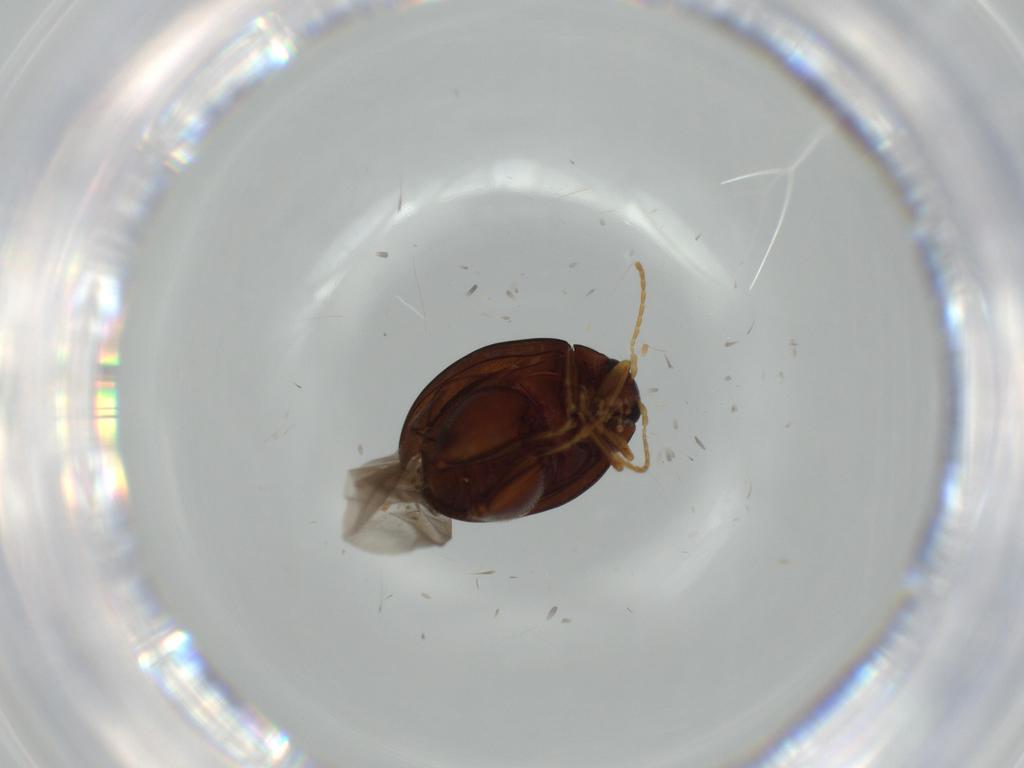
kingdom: Animalia
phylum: Arthropoda
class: Insecta
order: Coleoptera
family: Chrysomelidae
